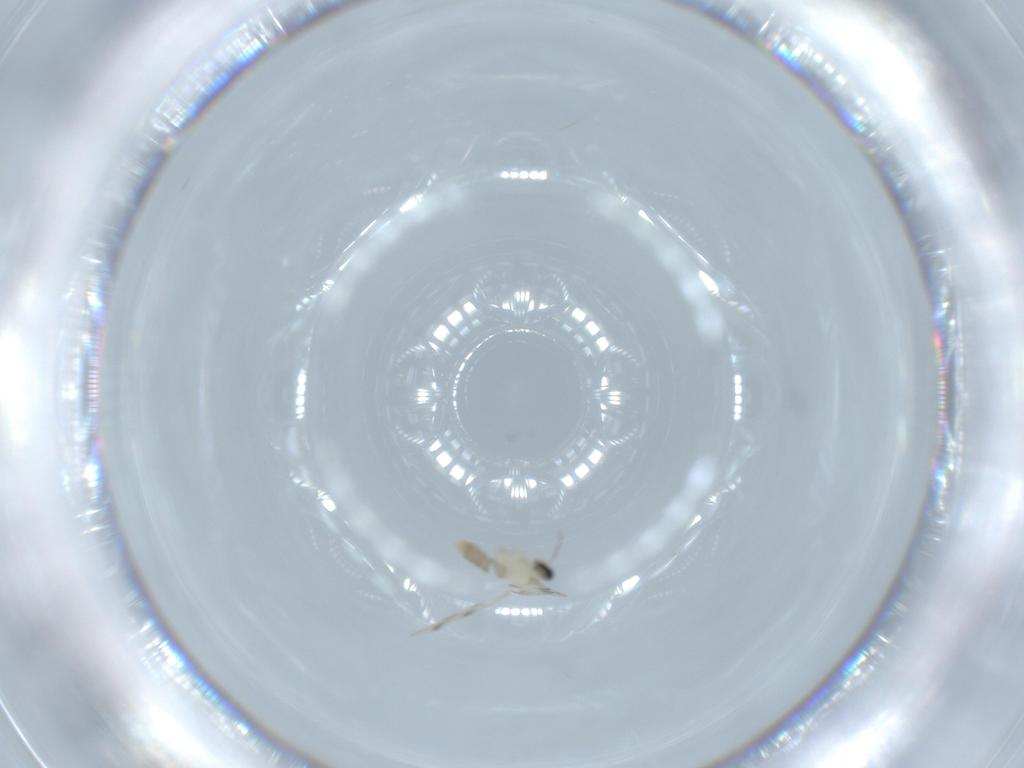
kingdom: Animalia
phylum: Arthropoda
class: Insecta
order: Diptera
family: Cecidomyiidae
